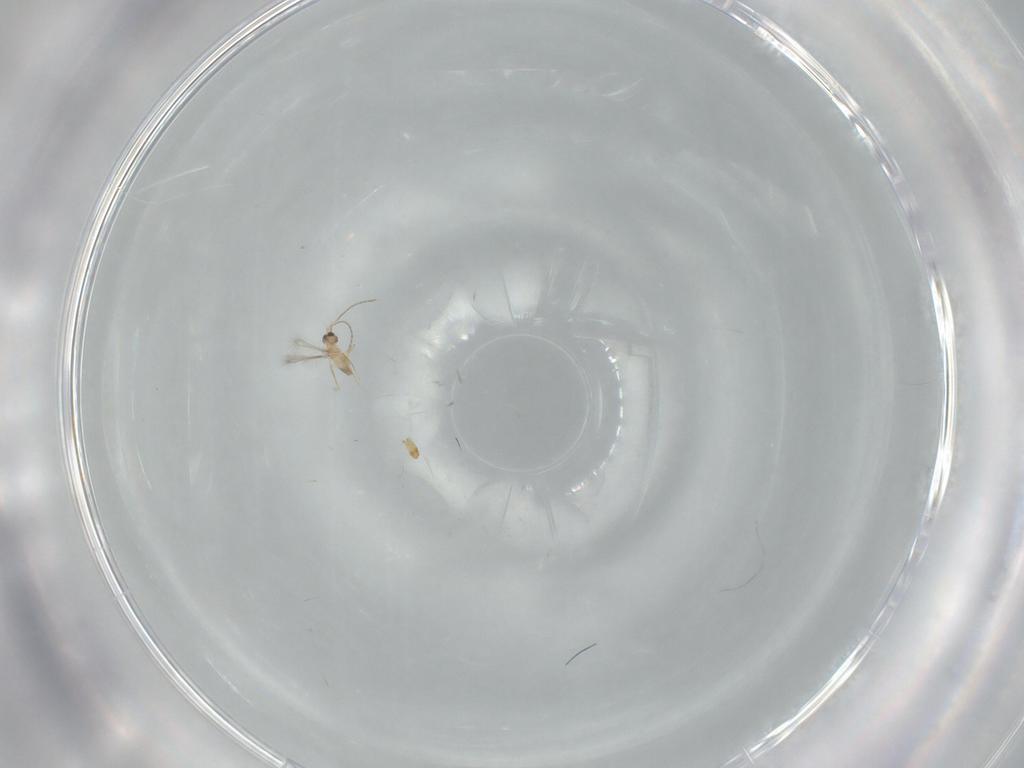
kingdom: Animalia
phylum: Arthropoda
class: Insecta
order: Hymenoptera
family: Mymaridae
